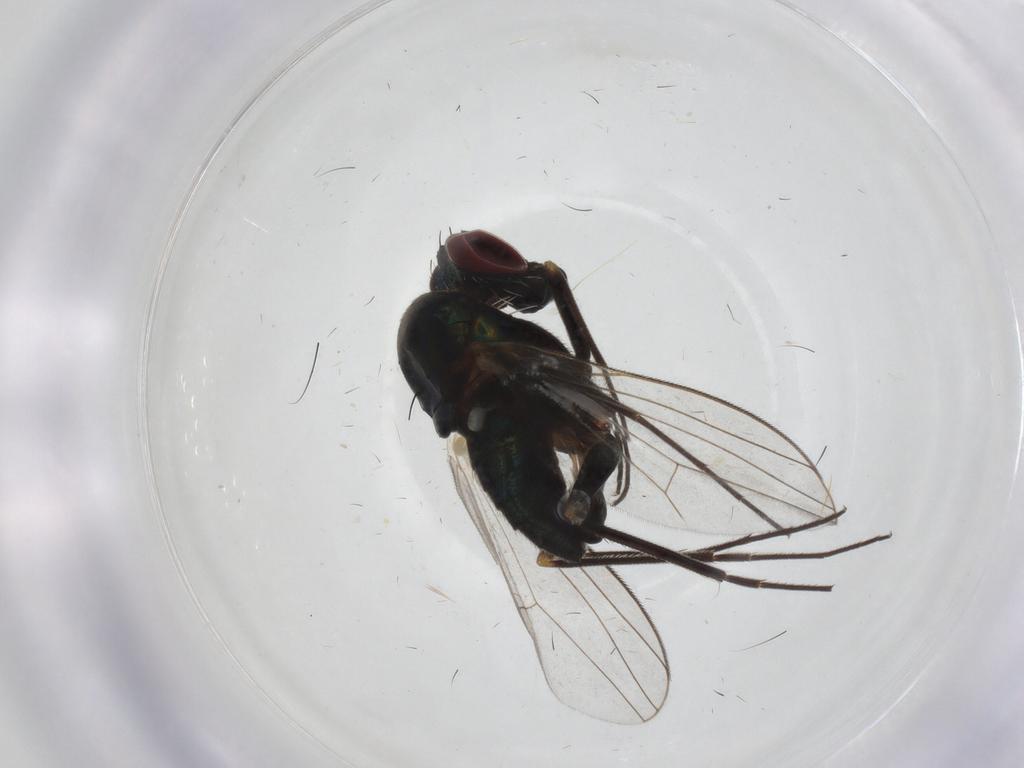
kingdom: Animalia
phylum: Arthropoda
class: Insecta
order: Diptera
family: Dolichopodidae
